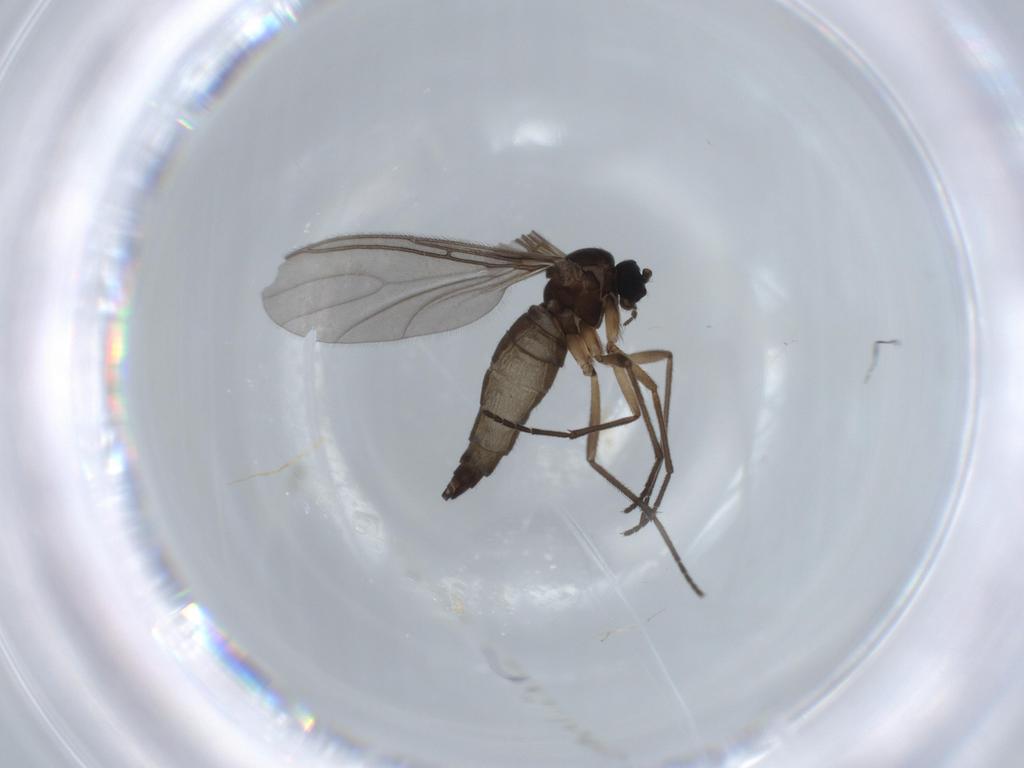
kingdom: Animalia
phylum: Arthropoda
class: Insecta
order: Diptera
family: Sciaridae
